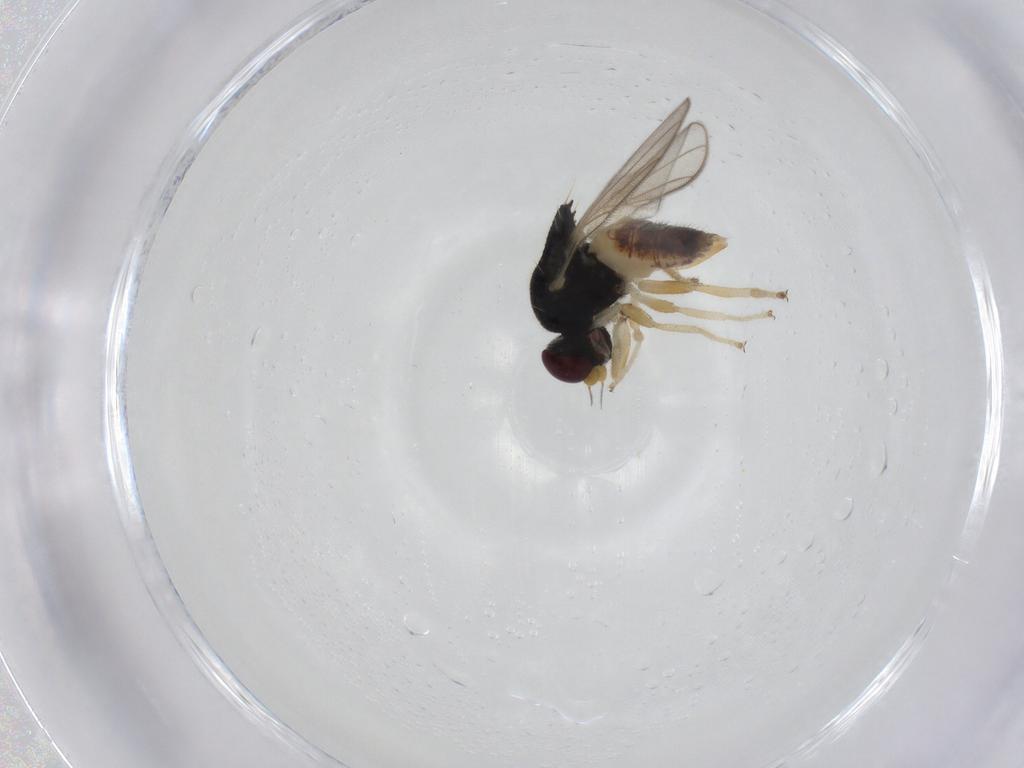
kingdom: Animalia
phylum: Arthropoda
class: Insecta
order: Diptera
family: Chloropidae
